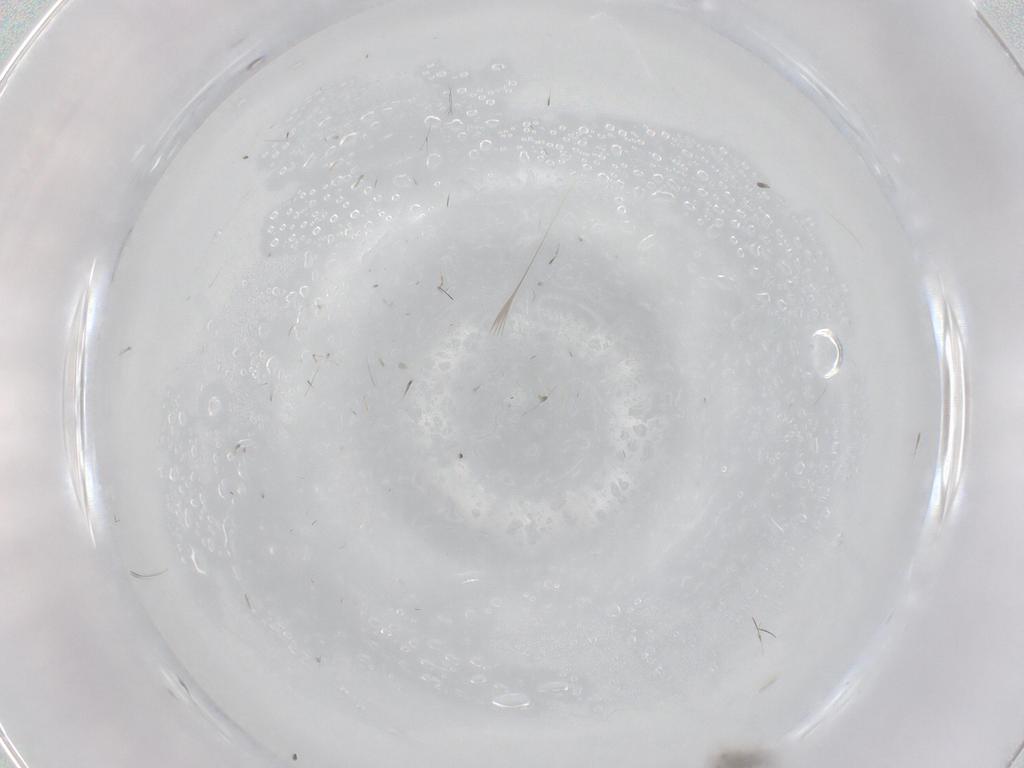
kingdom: Animalia
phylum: Arthropoda
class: Insecta
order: Diptera
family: Cecidomyiidae
